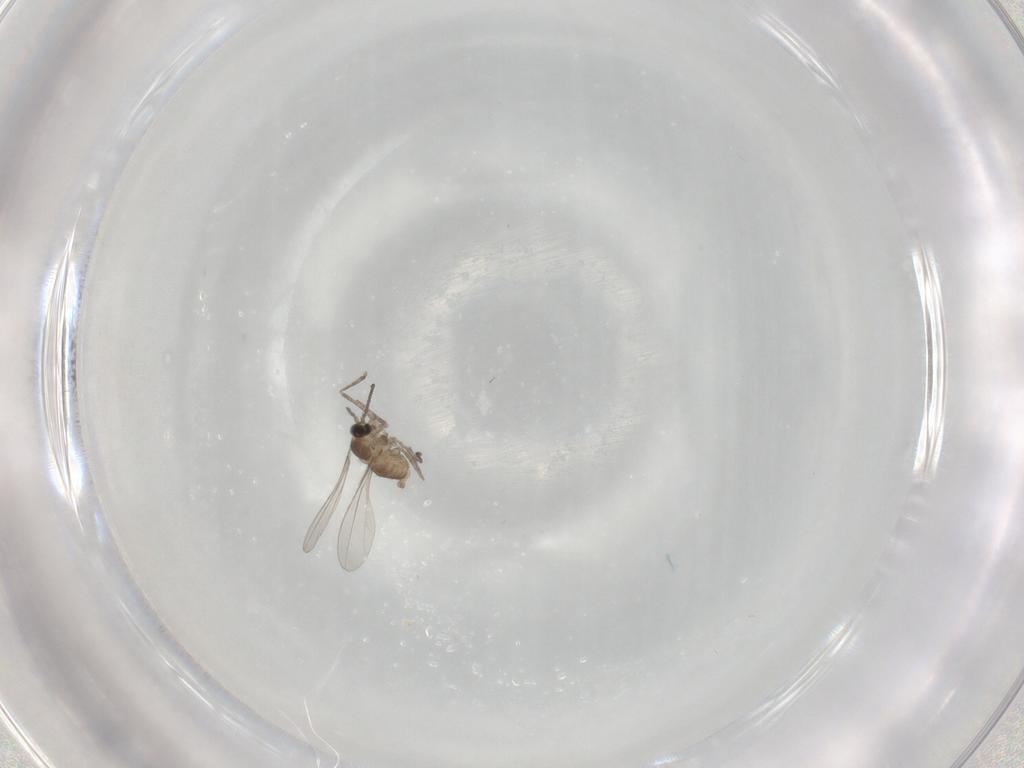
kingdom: Animalia
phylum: Arthropoda
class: Insecta
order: Diptera
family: Cecidomyiidae
